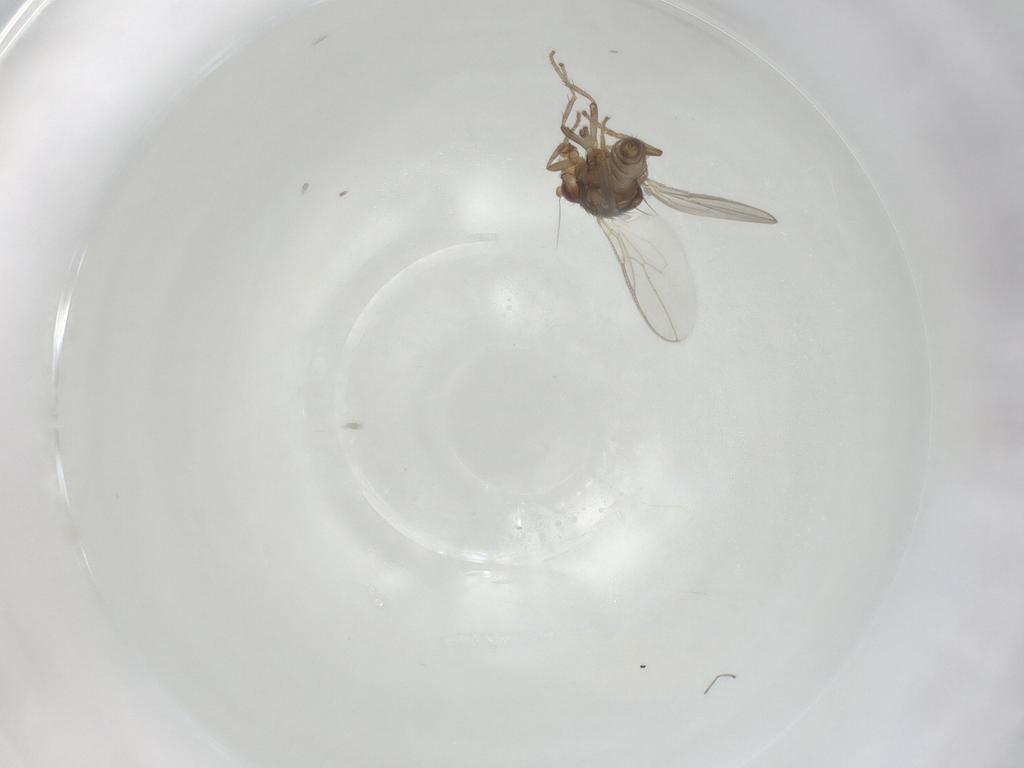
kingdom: Animalia
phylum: Arthropoda
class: Insecta
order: Diptera
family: Sphaeroceridae
